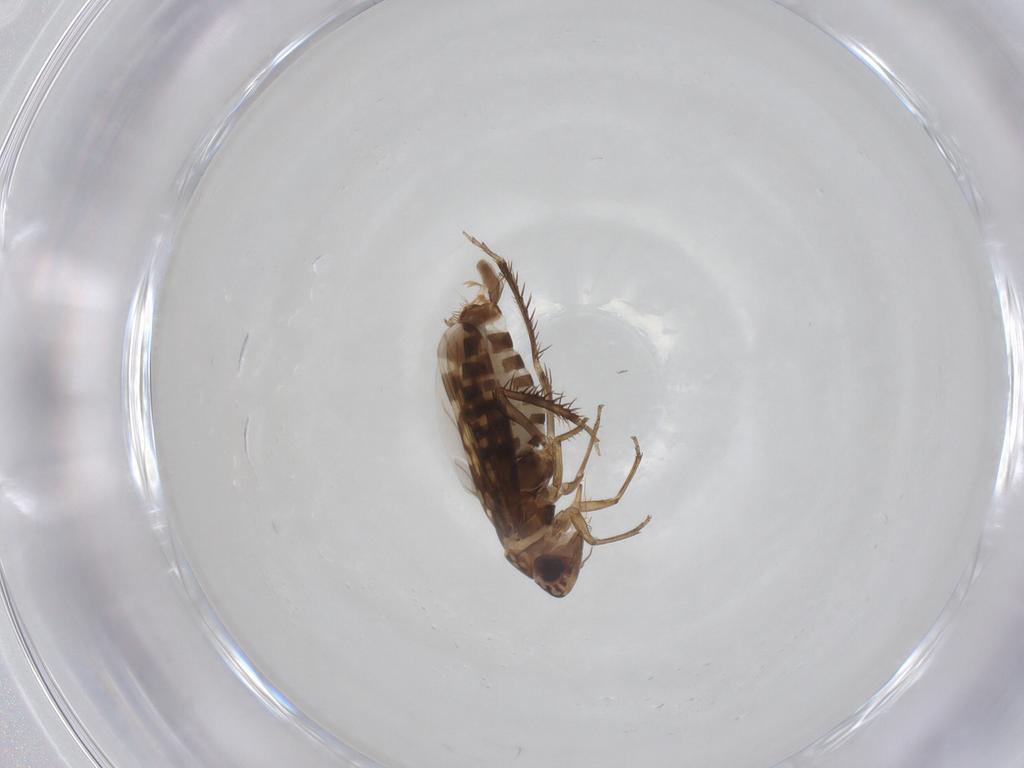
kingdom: Animalia
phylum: Arthropoda
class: Insecta
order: Hemiptera
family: Cicadellidae
